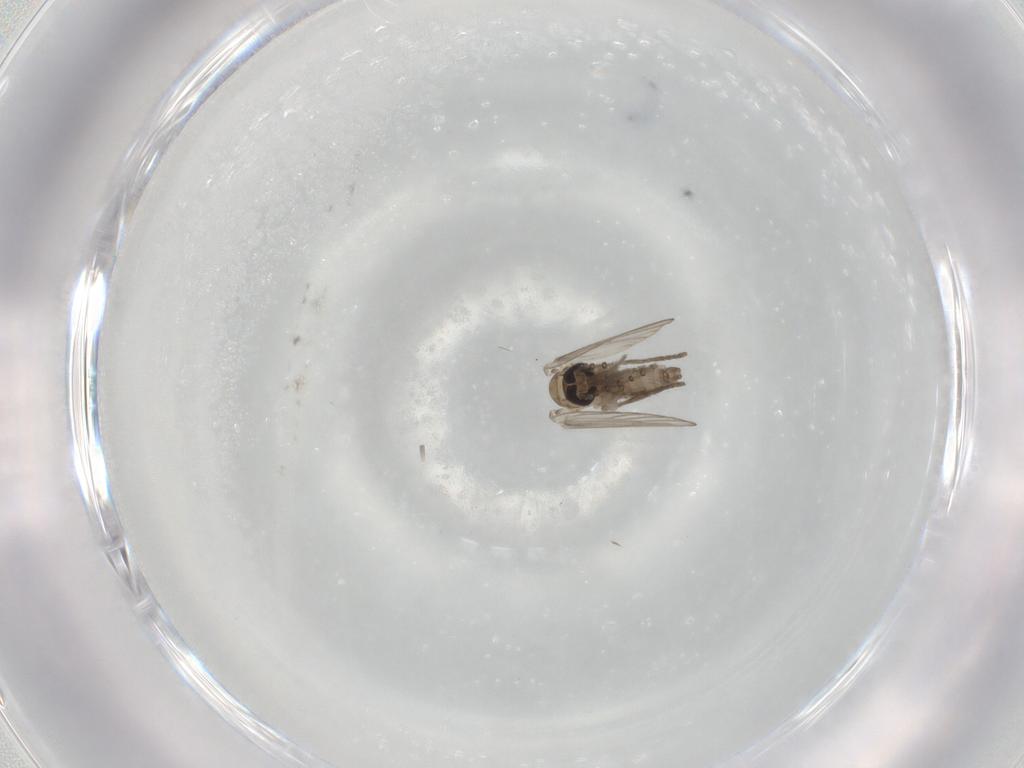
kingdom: Animalia
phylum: Arthropoda
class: Insecta
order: Diptera
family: Psychodidae
